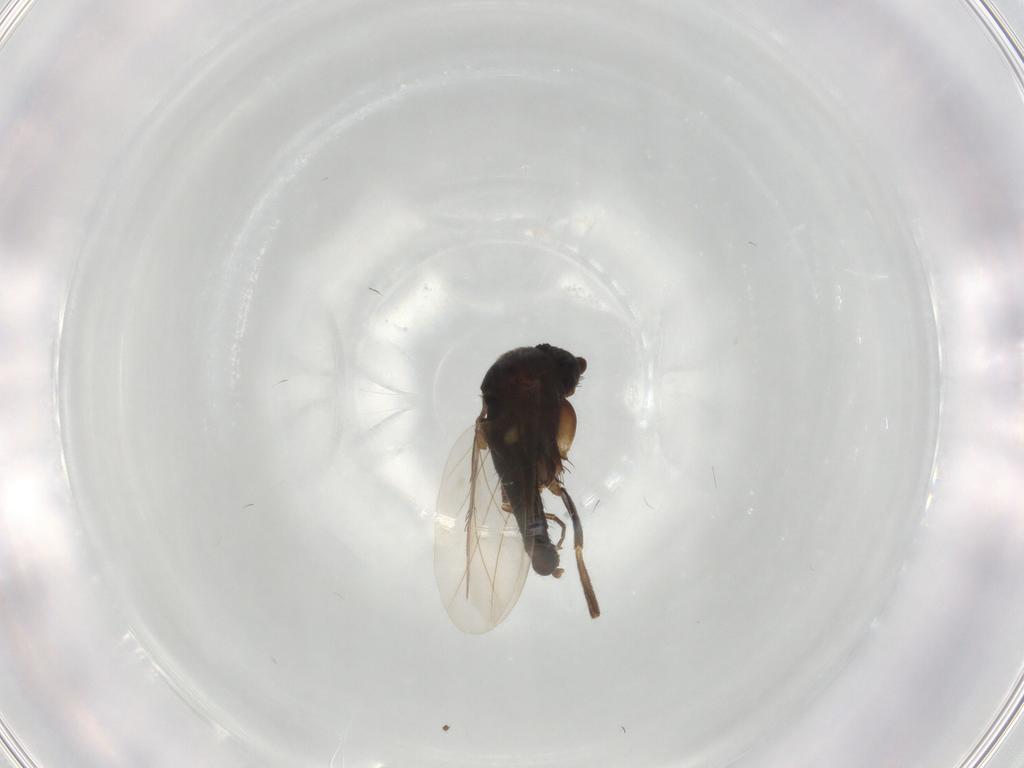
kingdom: Animalia
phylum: Arthropoda
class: Insecta
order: Diptera
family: Phoridae
